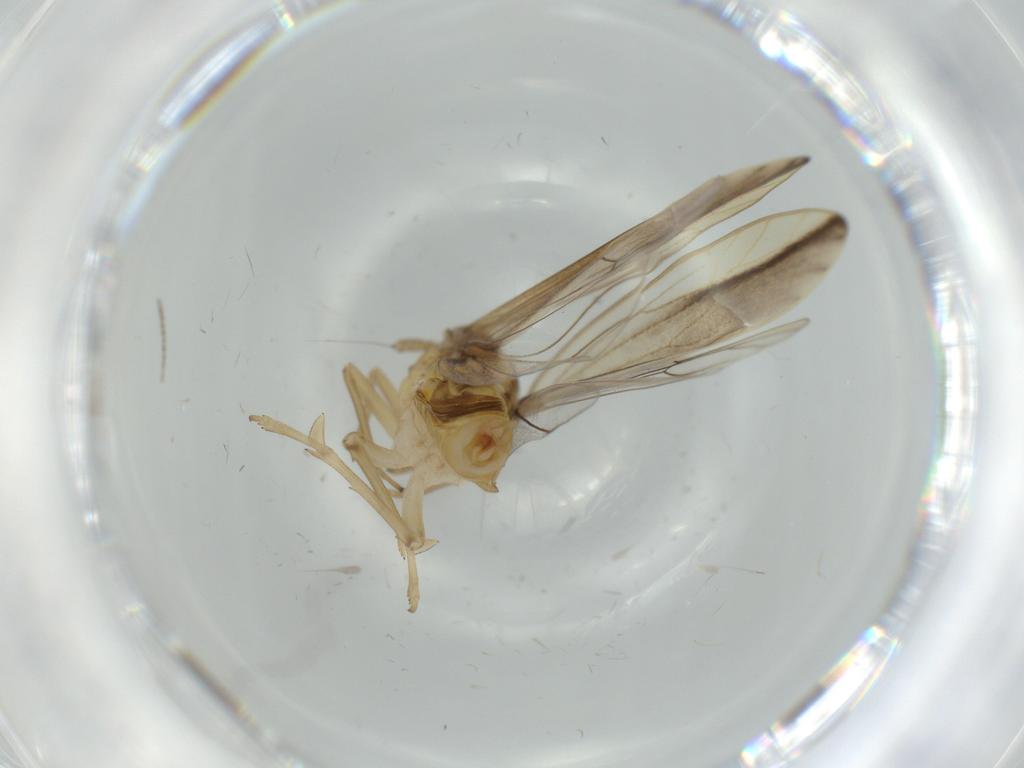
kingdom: Animalia
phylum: Arthropoda
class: Insecta
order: Hemiptera
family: Delphacidae
